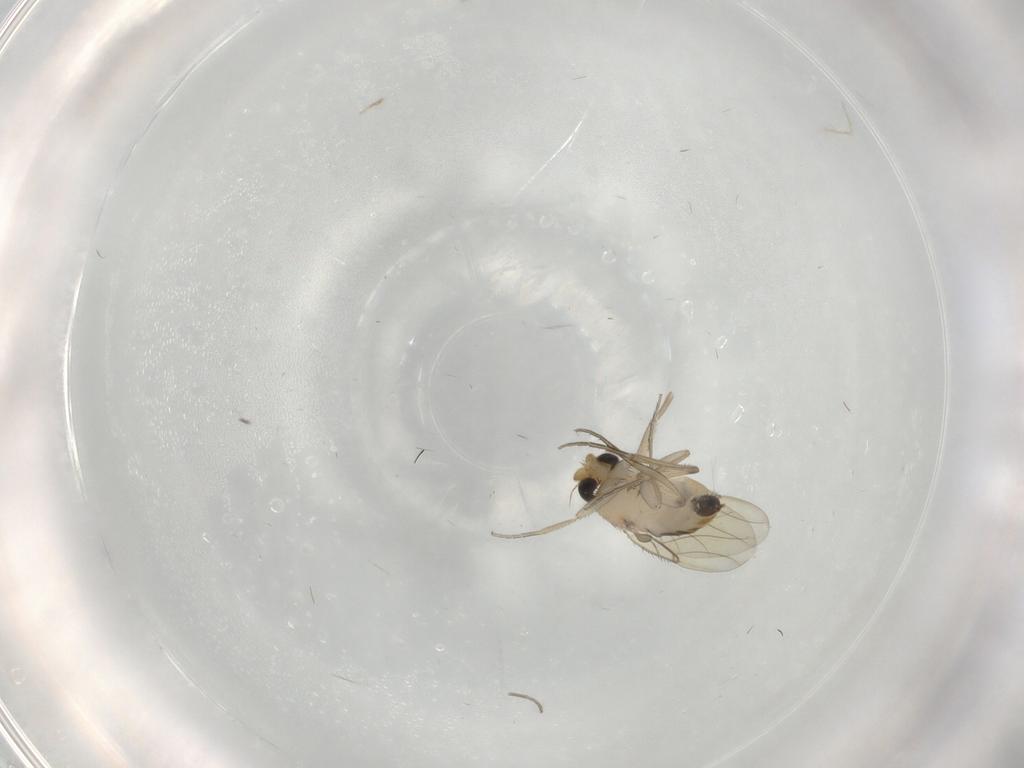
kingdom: Animalia
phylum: Arthropoda
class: Insecta
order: Diptera
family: Phoridae
